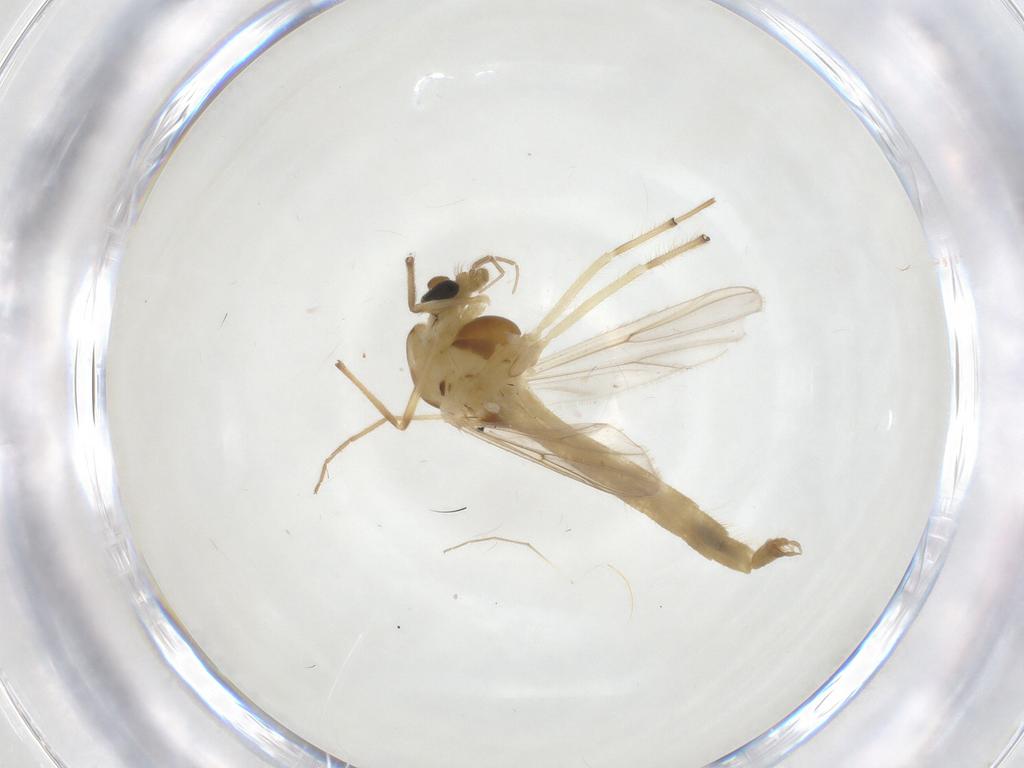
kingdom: Animalia
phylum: Arthropoda
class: Insecta
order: Diptera
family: Chironomidae
